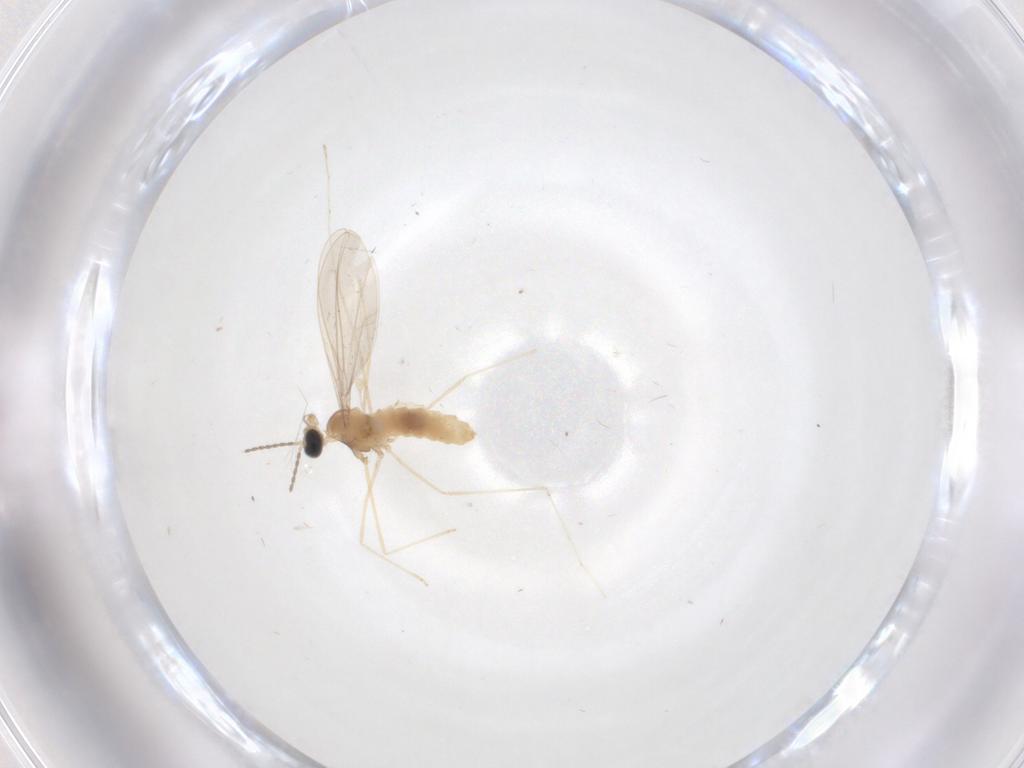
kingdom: Animalia
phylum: Arthropoda
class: Insecta
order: Diptera
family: Cecidomyiidae
